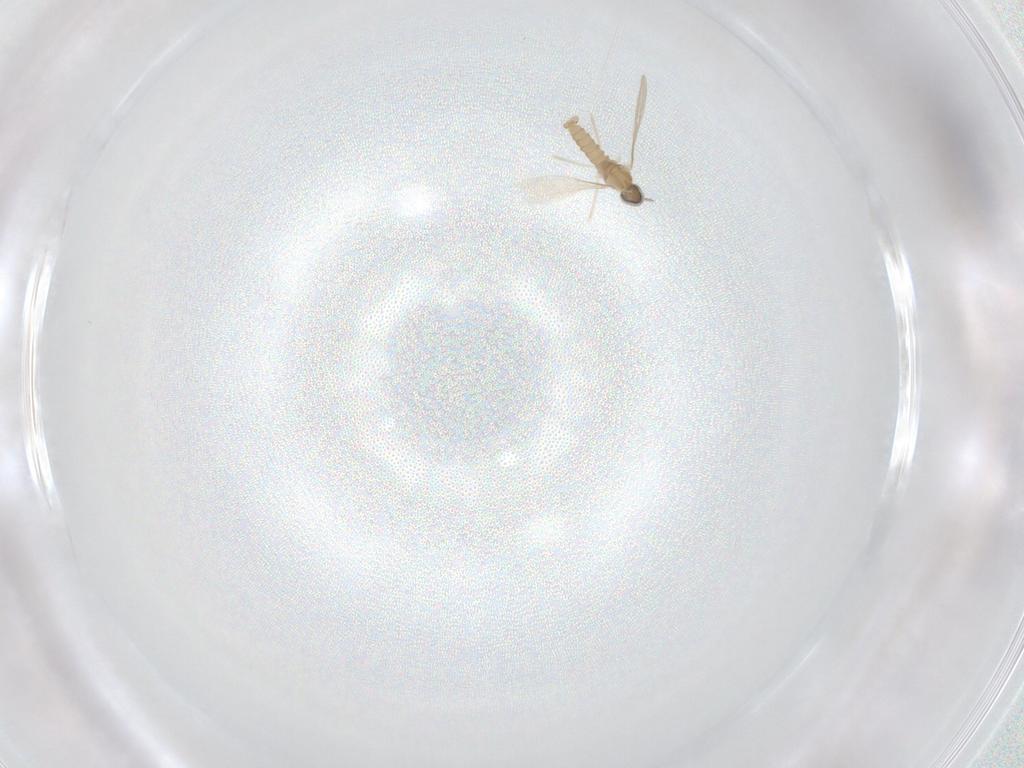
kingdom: Animalia
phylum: Arthropoda
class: Insecta
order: Diptera
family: Cecidomyiidae
